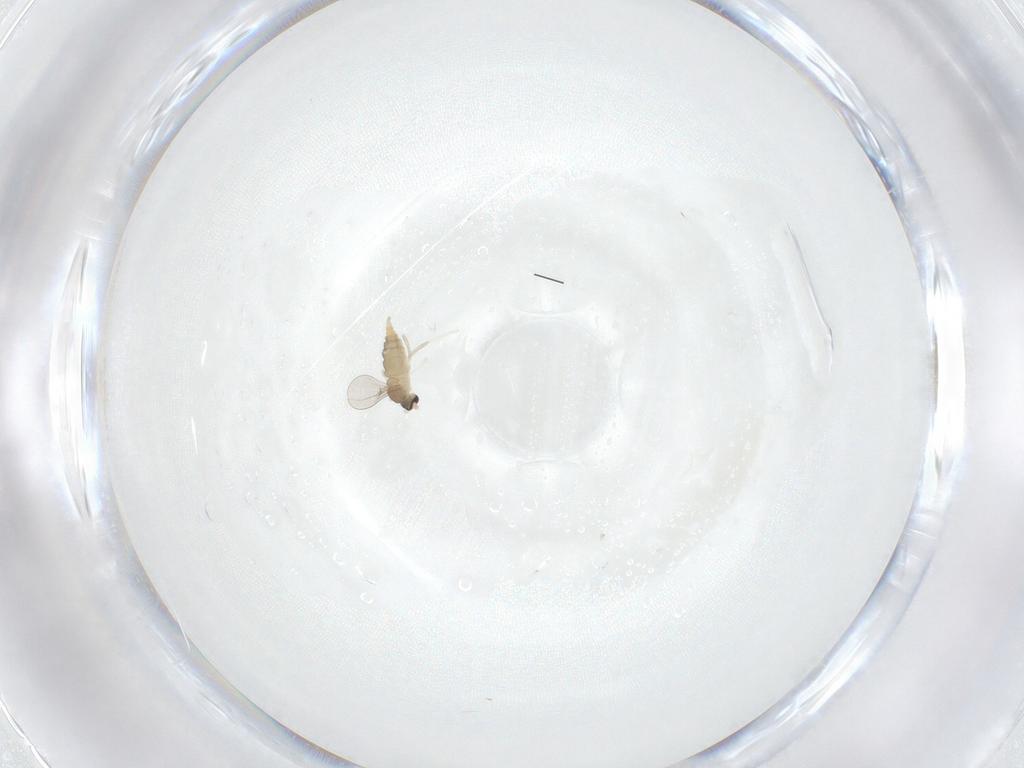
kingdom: Animalia
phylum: Arthropoda
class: Insecta
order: Diptera
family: Cecidomyiidae
